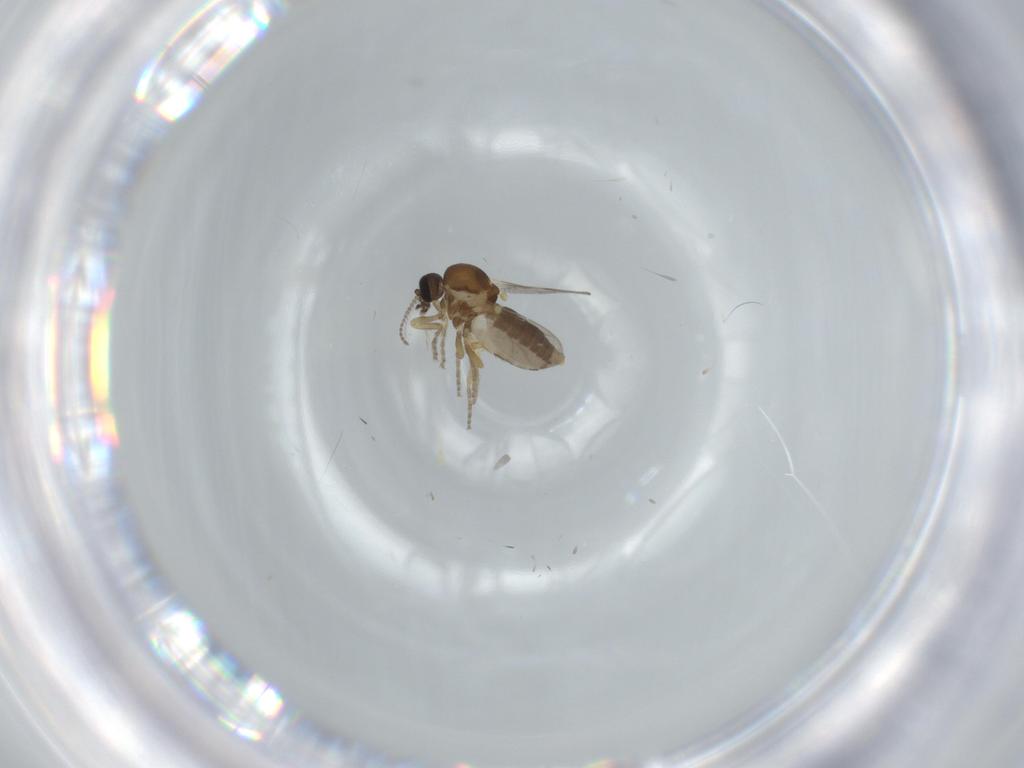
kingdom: Animalia
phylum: Arthropoda
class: Insecta
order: Diptera
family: Ceratopogonidae
